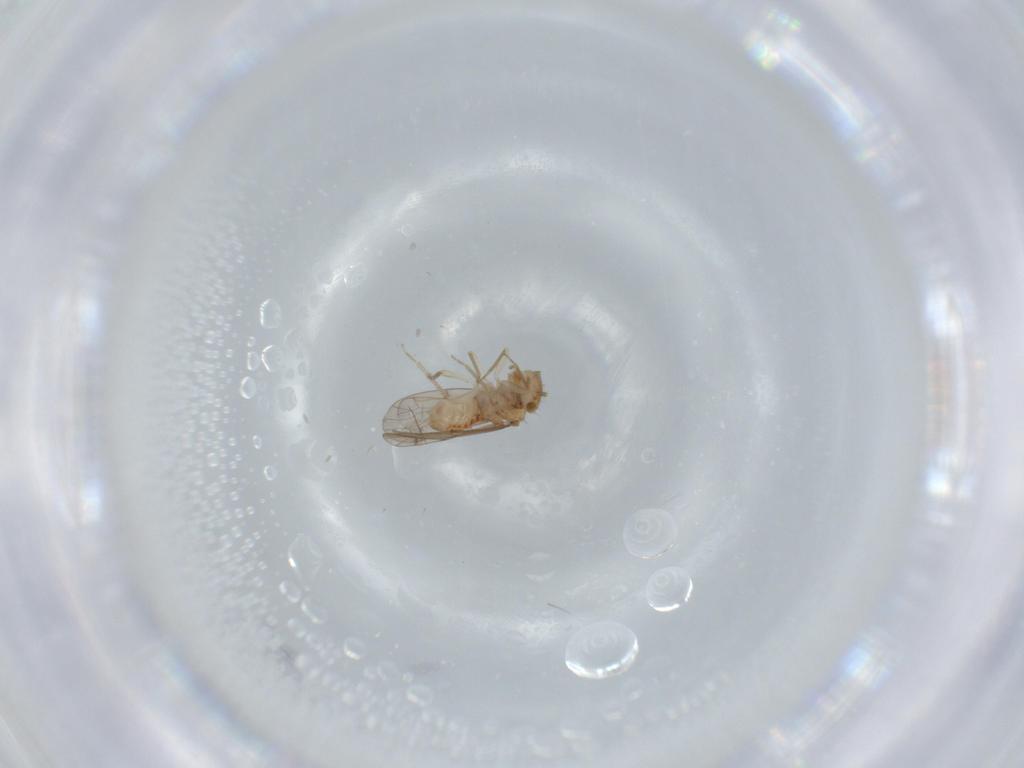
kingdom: Animalia
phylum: Arthropoda
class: Insecta
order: Psocodea
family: Ectopsocidae
